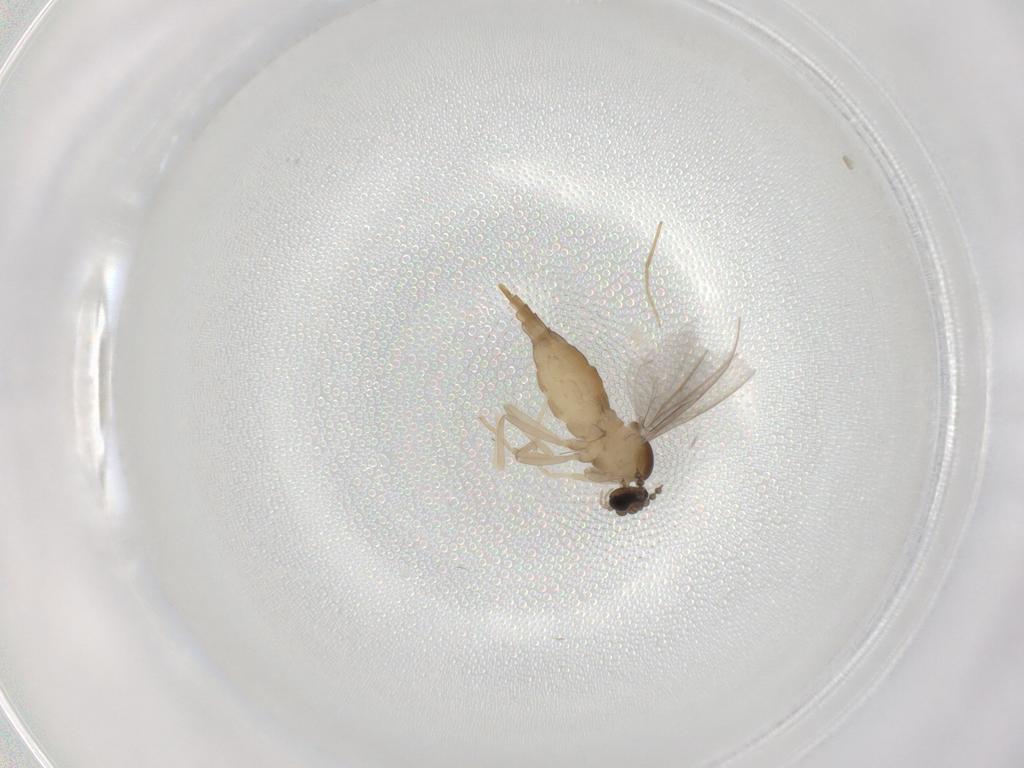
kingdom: Animalia
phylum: Arthropoda
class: Insecta
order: Diptera
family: Cecidomyiidae
